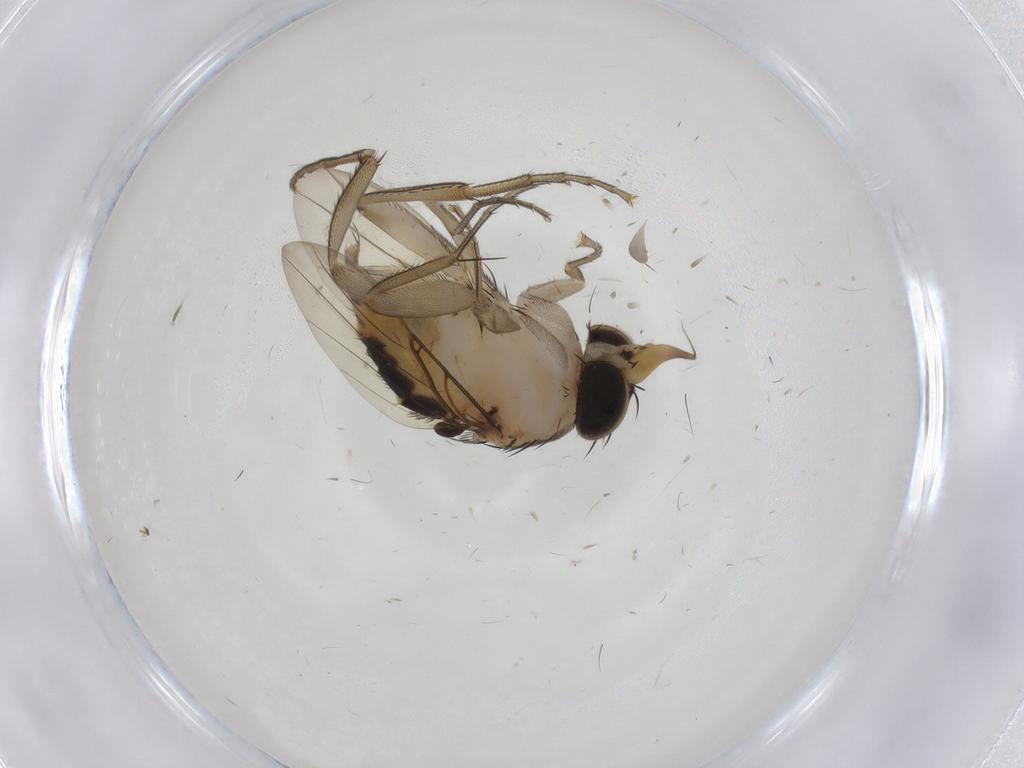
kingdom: Animalia
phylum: Arthropoda
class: Insecta
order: Diptera
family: Phoridae
